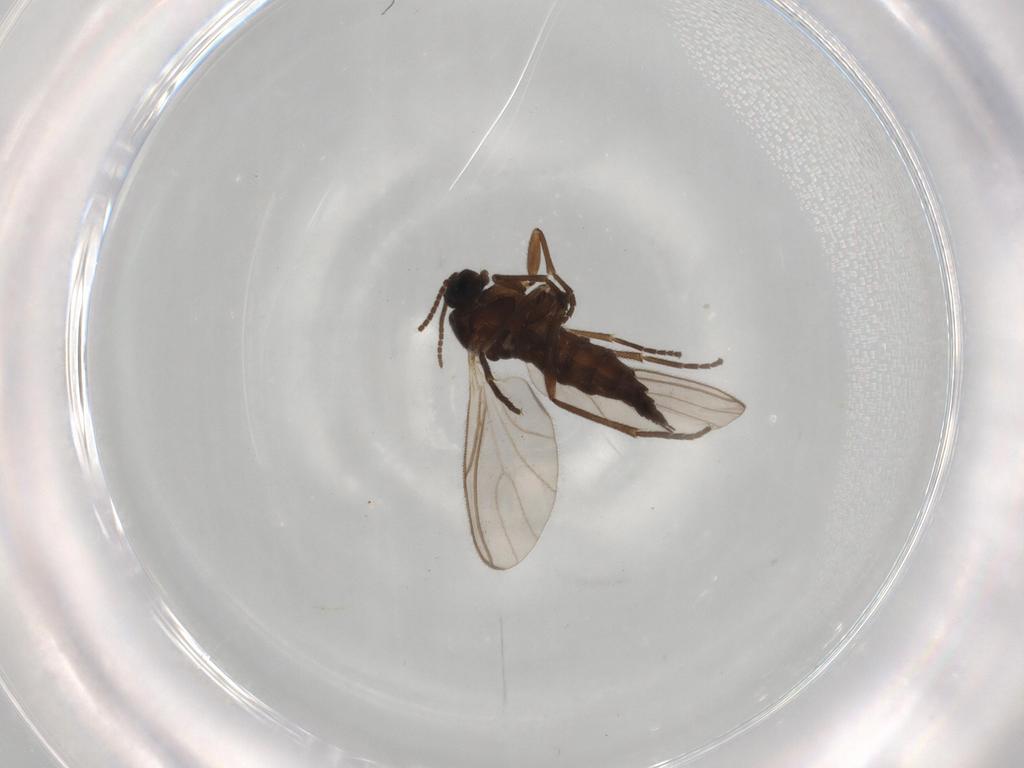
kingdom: Animalia
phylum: Arthropoda
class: Insecta
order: Diptera
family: Sciaridae
